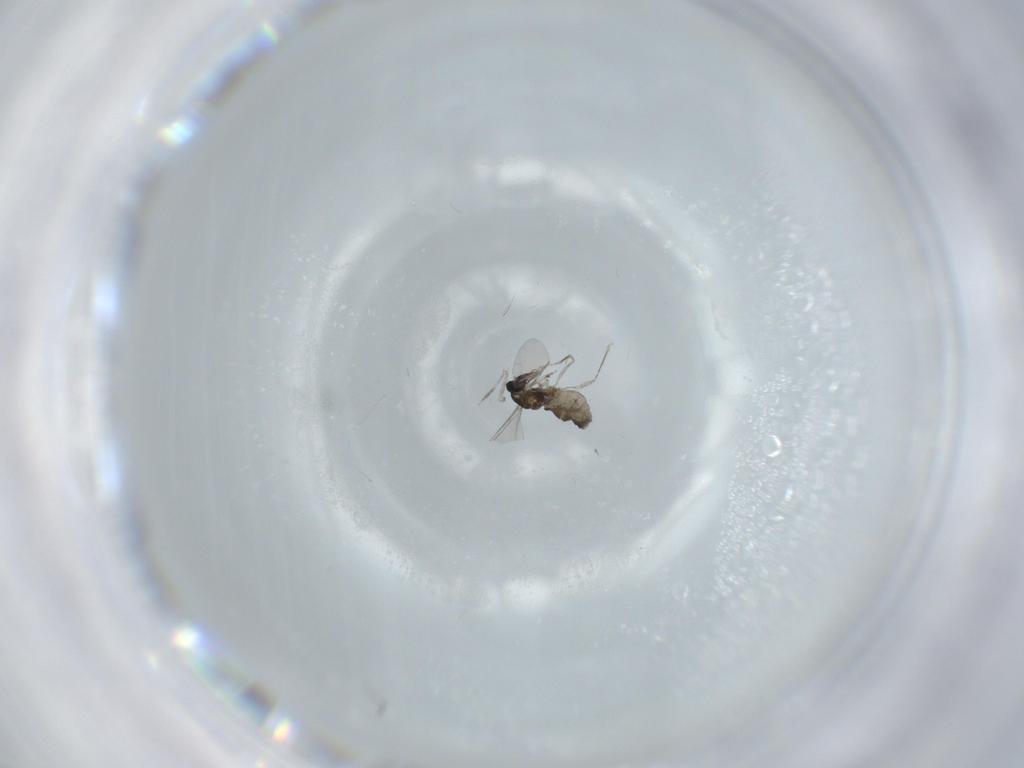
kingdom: Animalia
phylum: Arthropoda
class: Insecta
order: Diptera
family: Cecidomyiidae
